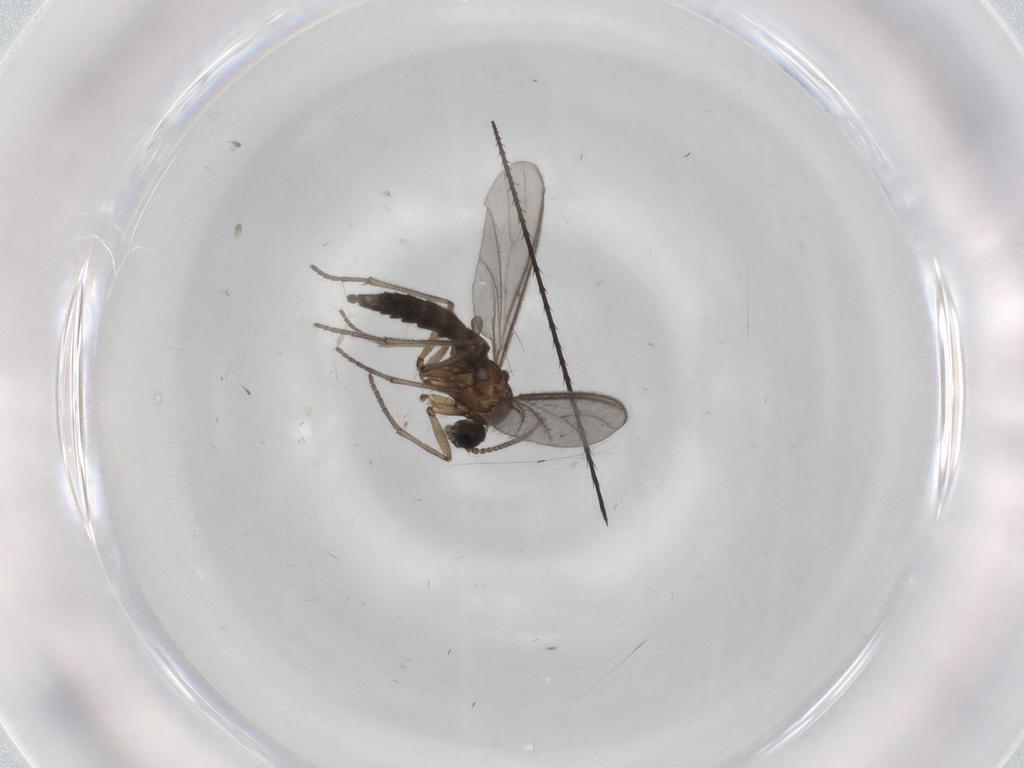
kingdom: Animalia
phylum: Arthropoda
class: Insecta
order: Diptera
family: Sciaridae
